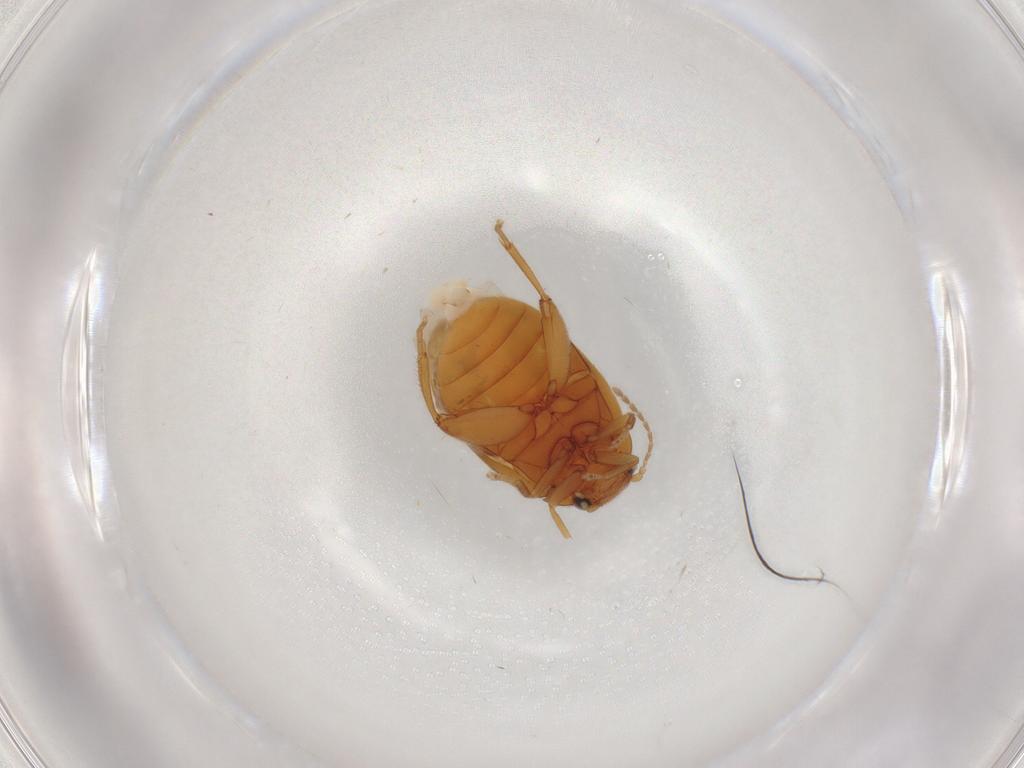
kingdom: Animalia
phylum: Arthropoda
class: Insecta
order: Coleoptera
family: Scirtidae
